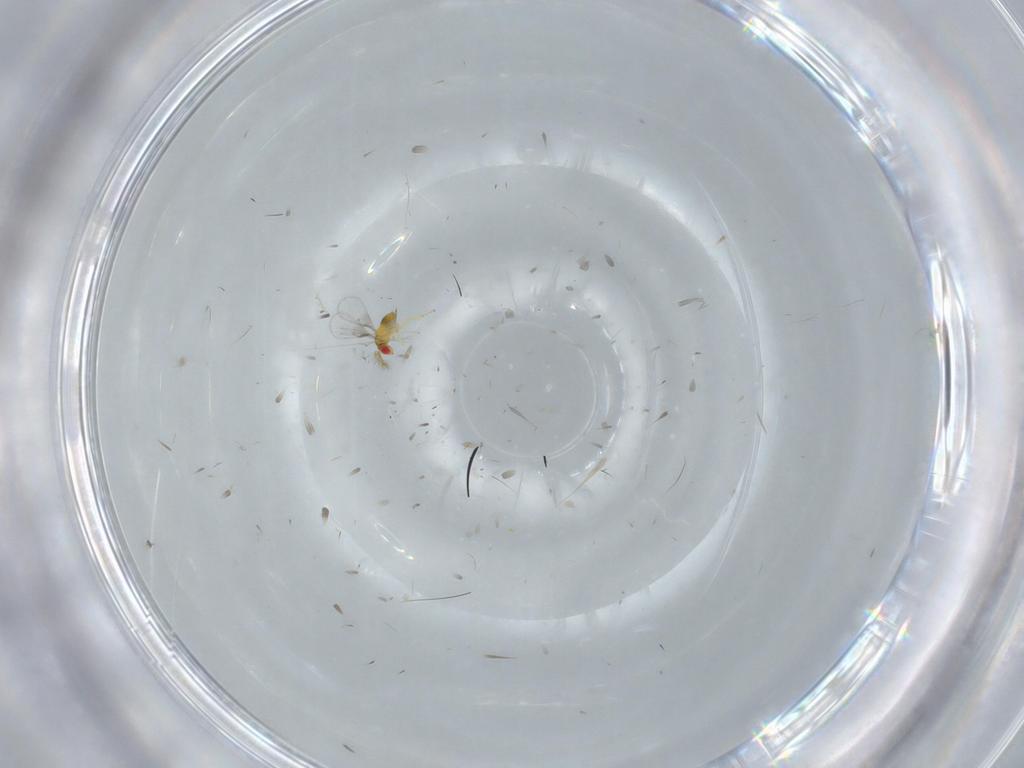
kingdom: Animalia
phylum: Arthropoda
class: Insecta
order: Hymenoptera
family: Trichogrammatidae
